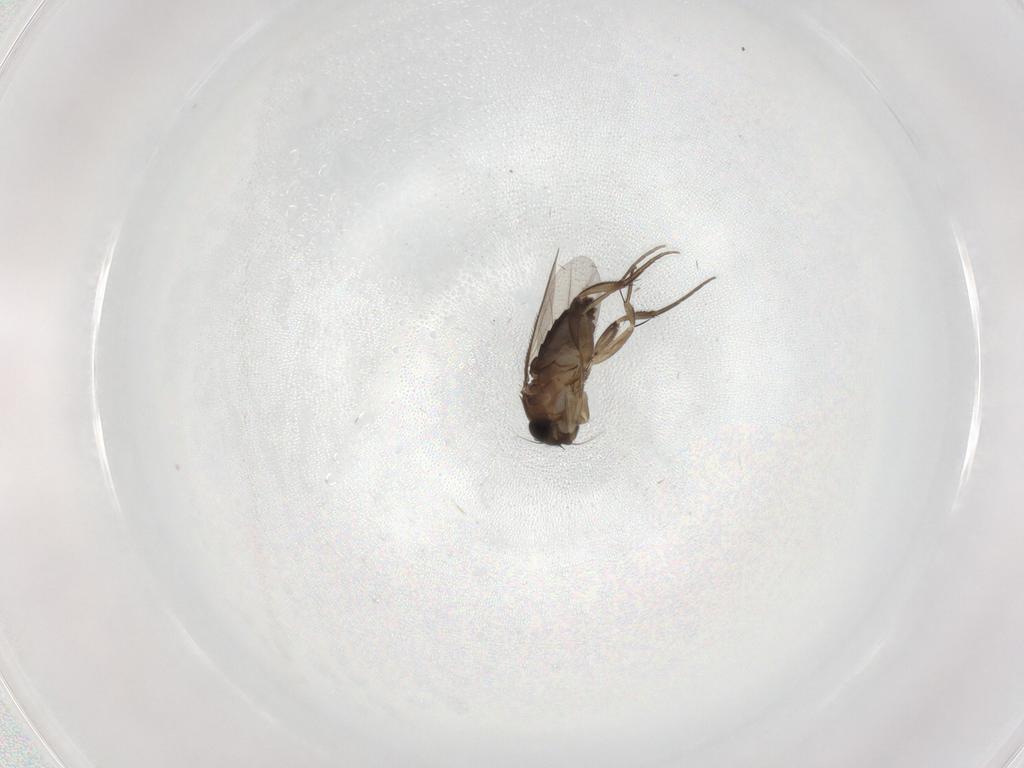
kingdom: Animalia
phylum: Arthropoda
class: Insecta
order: Diptera
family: Phoridae
